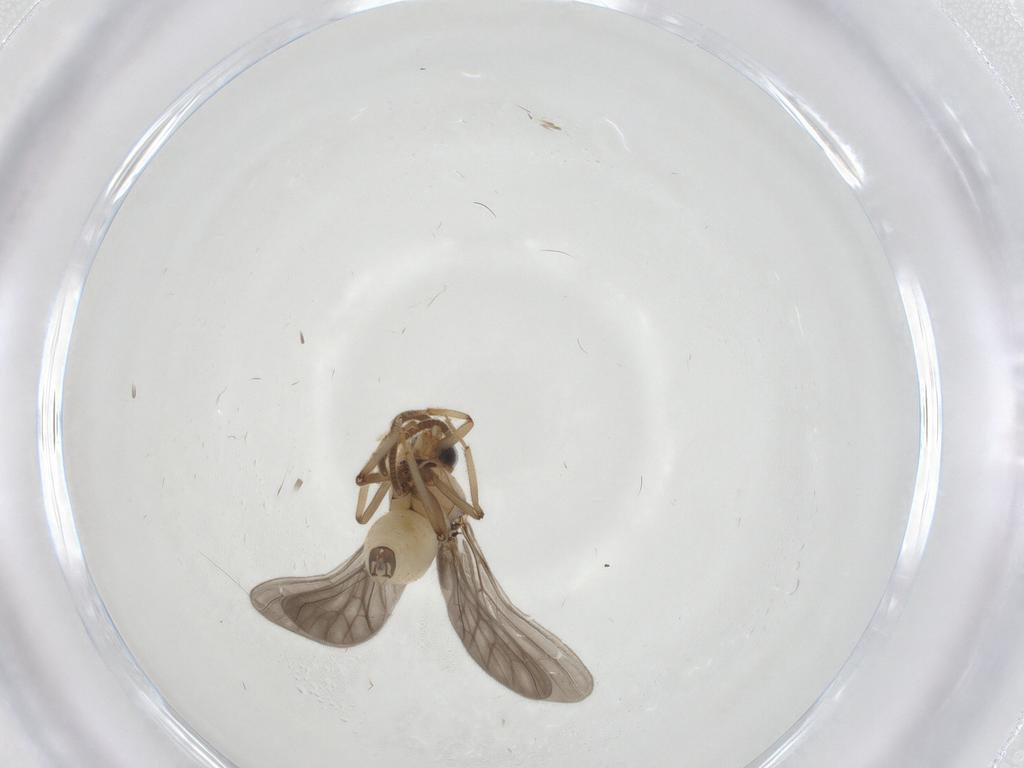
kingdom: Animalia
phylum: Arthropoda
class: Insecta
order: Neuroptera
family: Coniopterygidae
